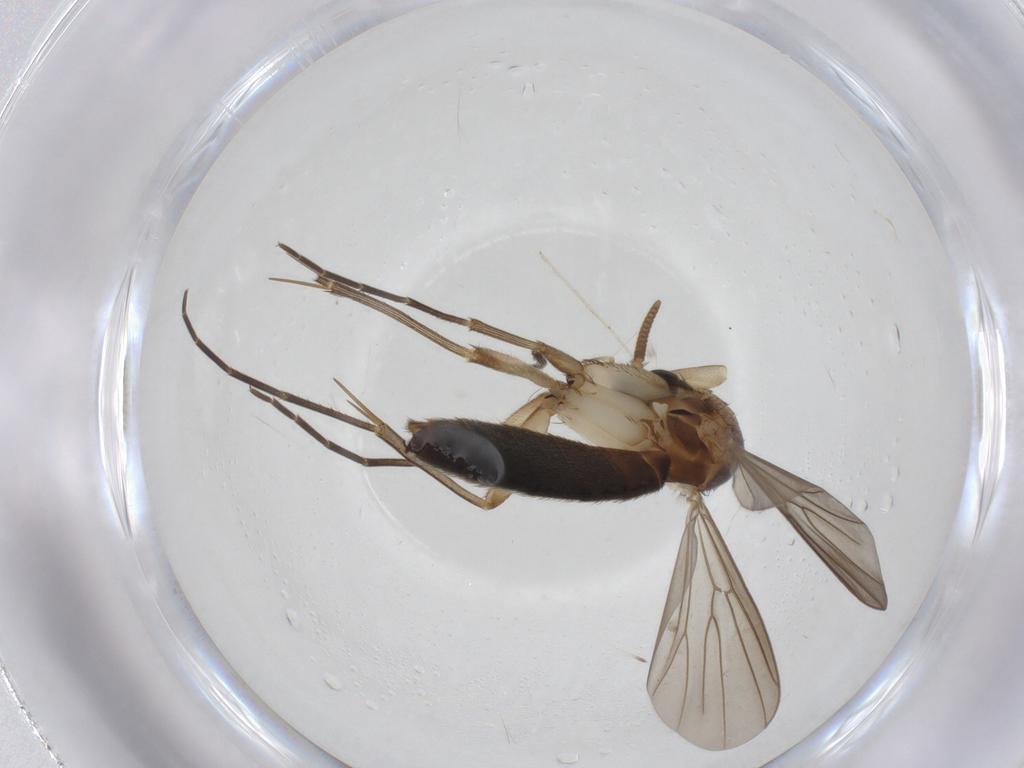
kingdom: Animalia
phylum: Arthropoda
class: Insecta
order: Diptera
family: Mycetophilidae
